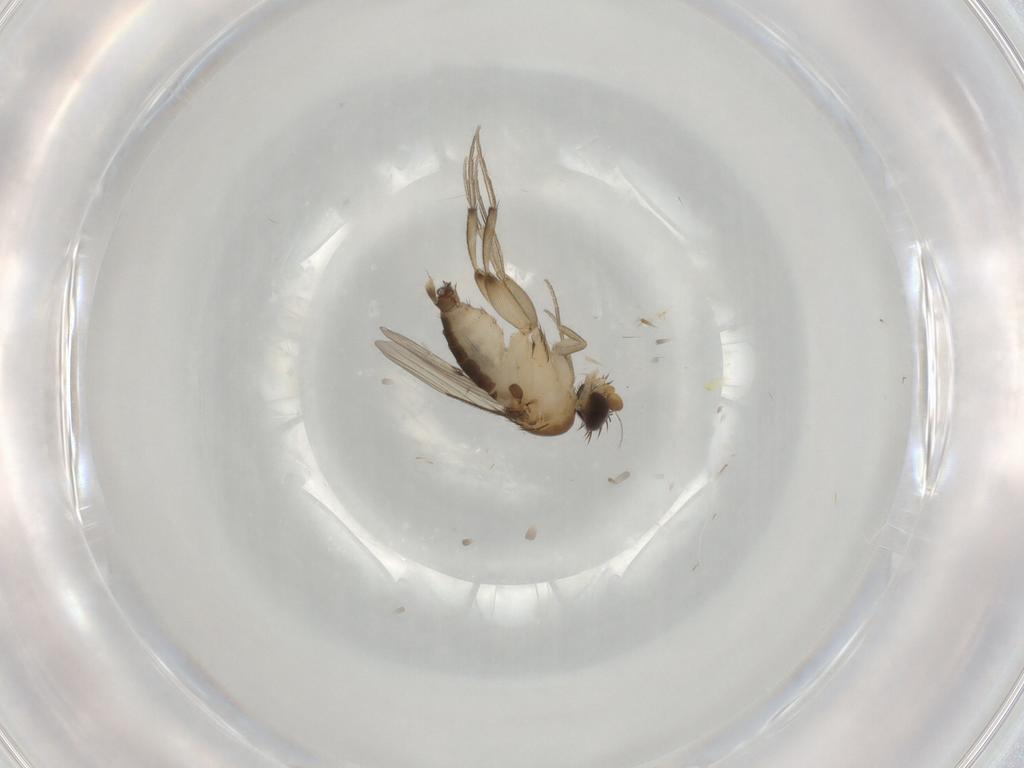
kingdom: Animalia
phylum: Arthropoda
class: Insecta
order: Diptera
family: Phoridae
